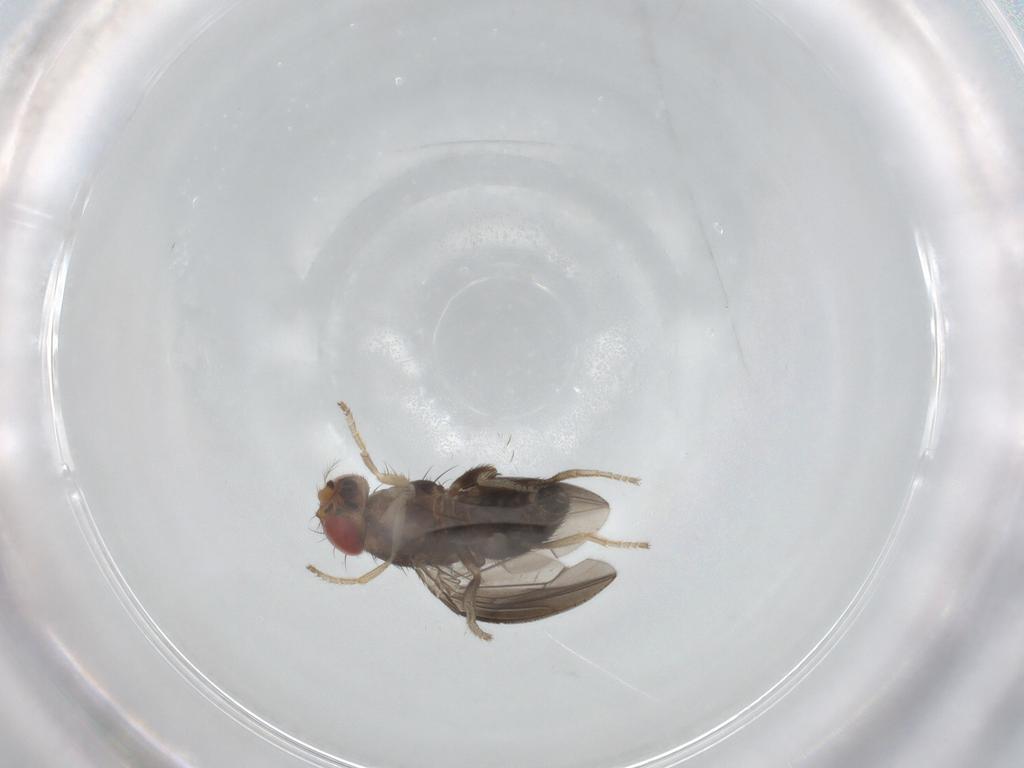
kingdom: Animalia
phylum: Arthropoda
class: Insecta
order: Diptera
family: Drosophilidae
